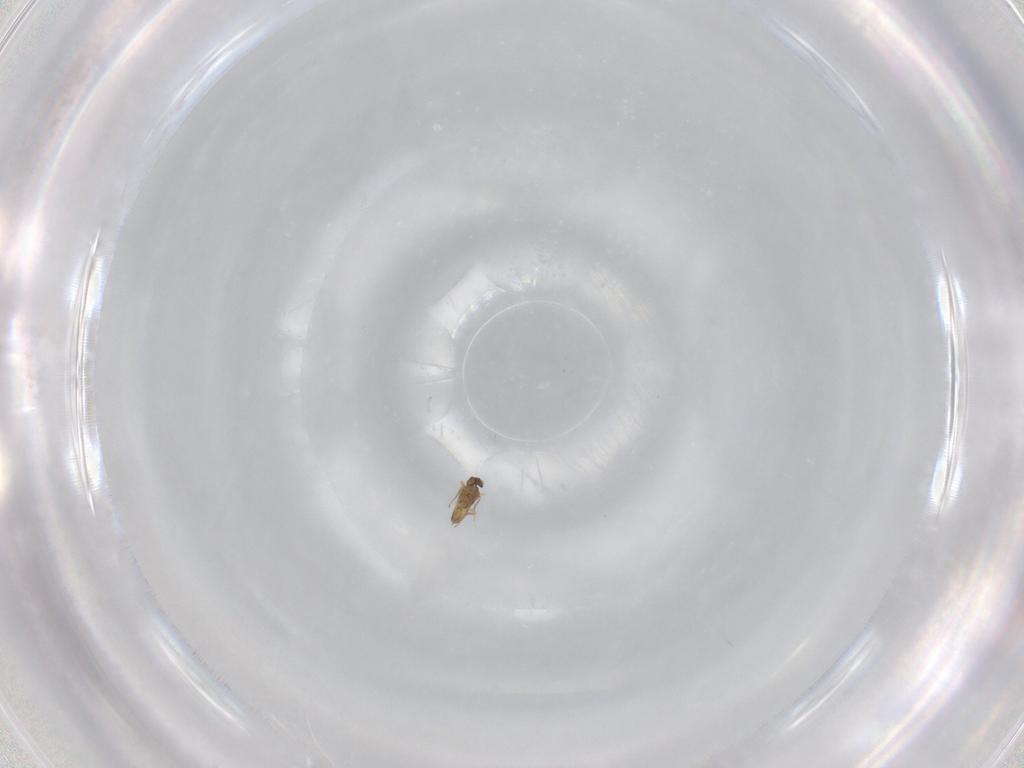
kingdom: Animalia
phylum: Arthropoda
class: Insecta
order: Hymenoptera
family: Mymaridae
